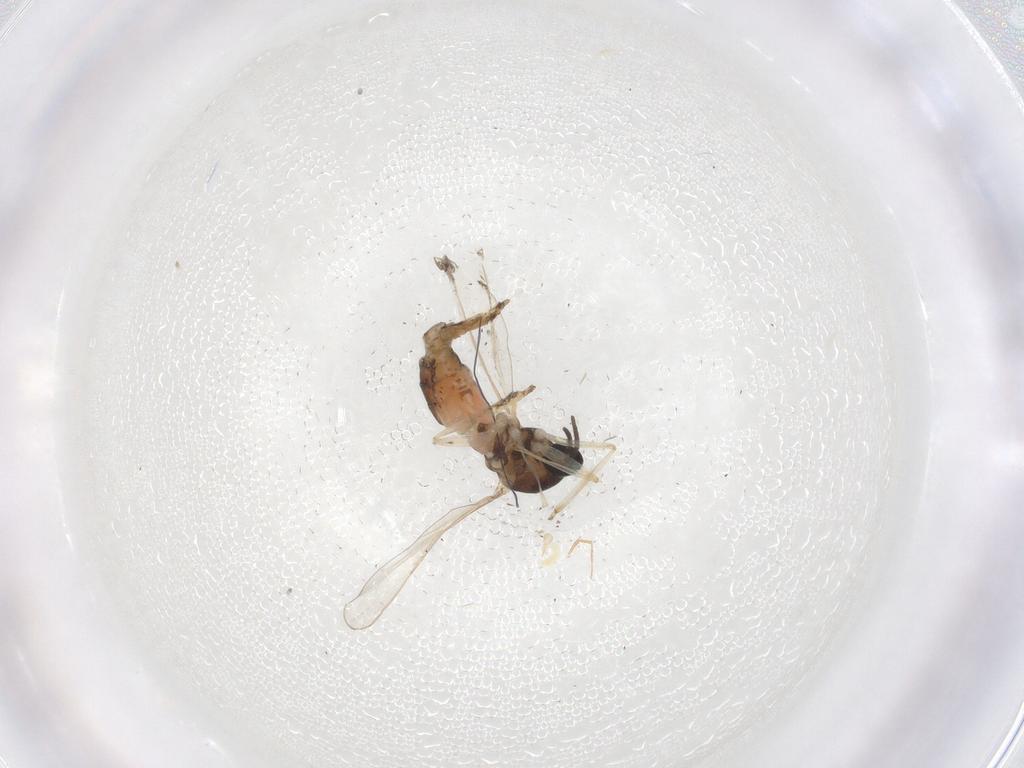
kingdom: Animalia
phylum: Arthropoda
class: Insecta
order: Diptera
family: Cecidomyiidae
